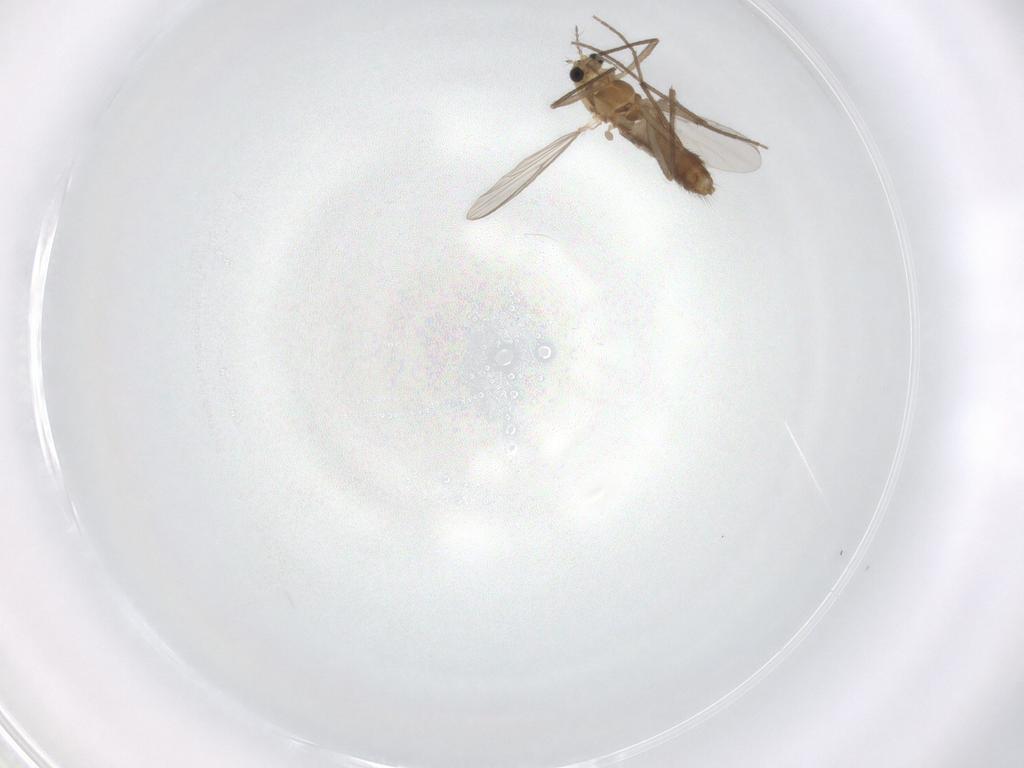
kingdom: Animalia
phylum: Arthropoda
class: Insecta
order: Diptera
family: Chironomidae
